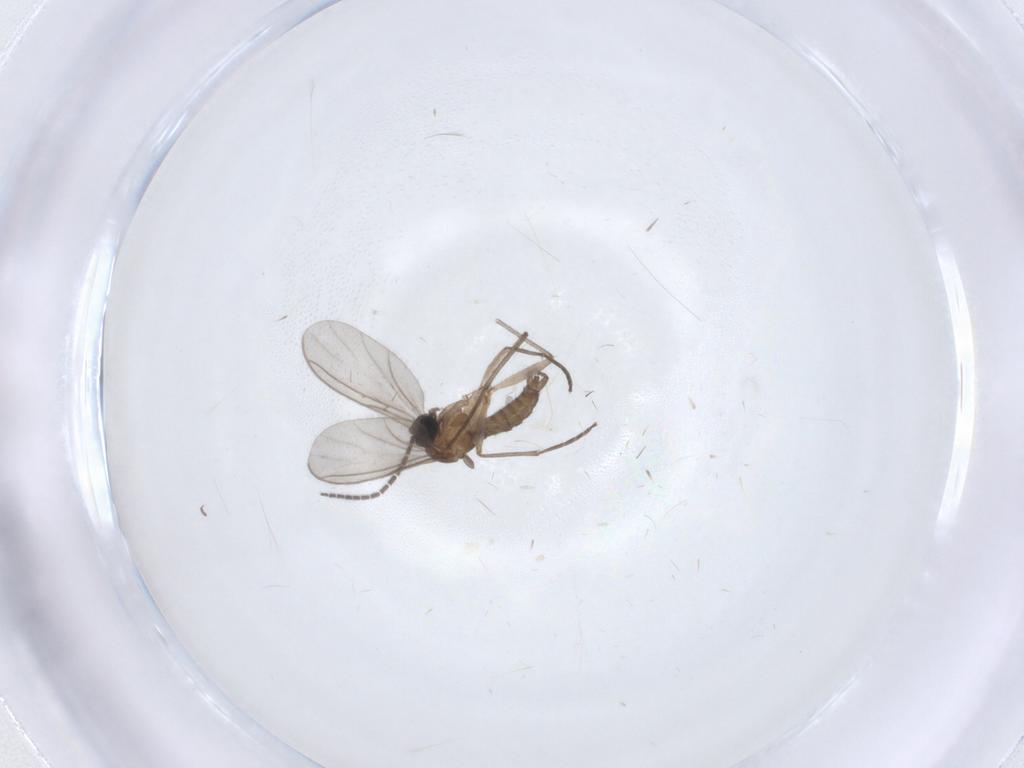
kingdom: Animalia
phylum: Arthropoda
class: Insecta
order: Diptera
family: Sciaridae
